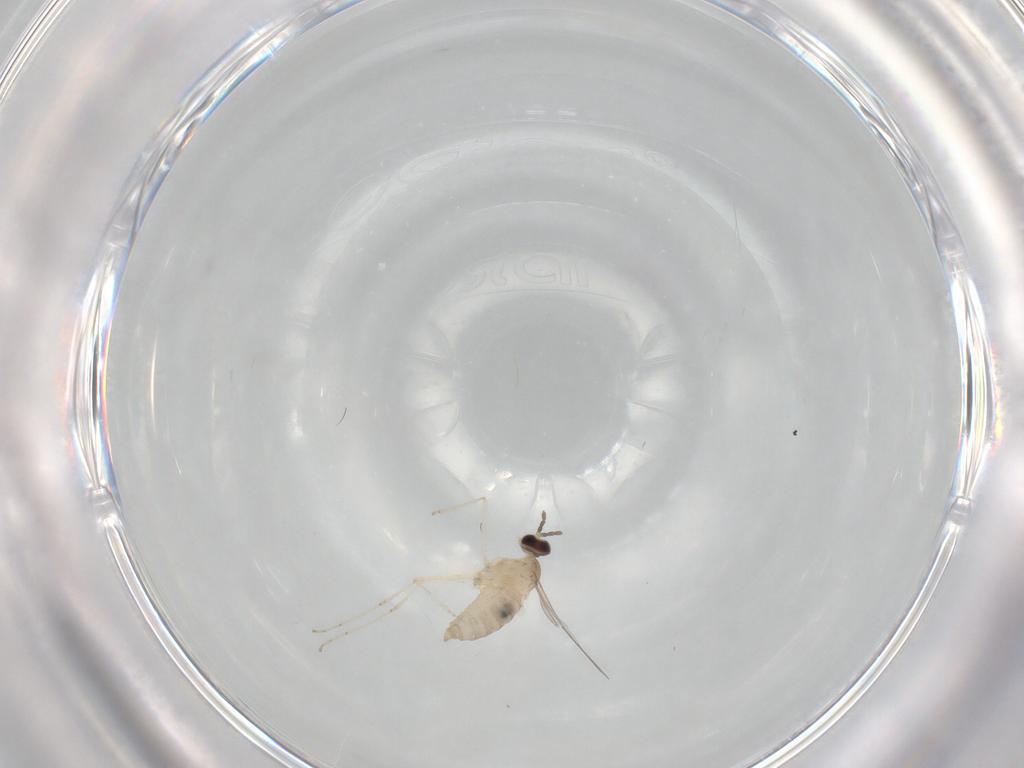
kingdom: Animalia
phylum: Arthropoda
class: Insecta
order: Diptera
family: Cecidomyiidae
